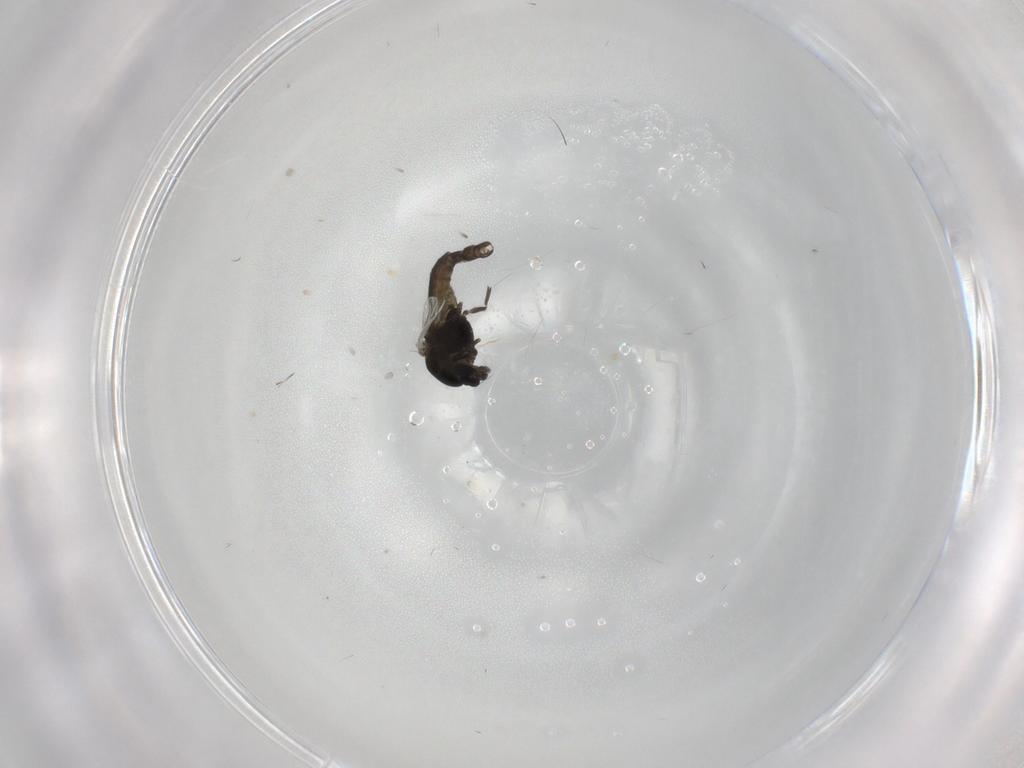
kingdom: Animalia
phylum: Arthropoda
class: Insecta
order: Diptera
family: Chironomidae
